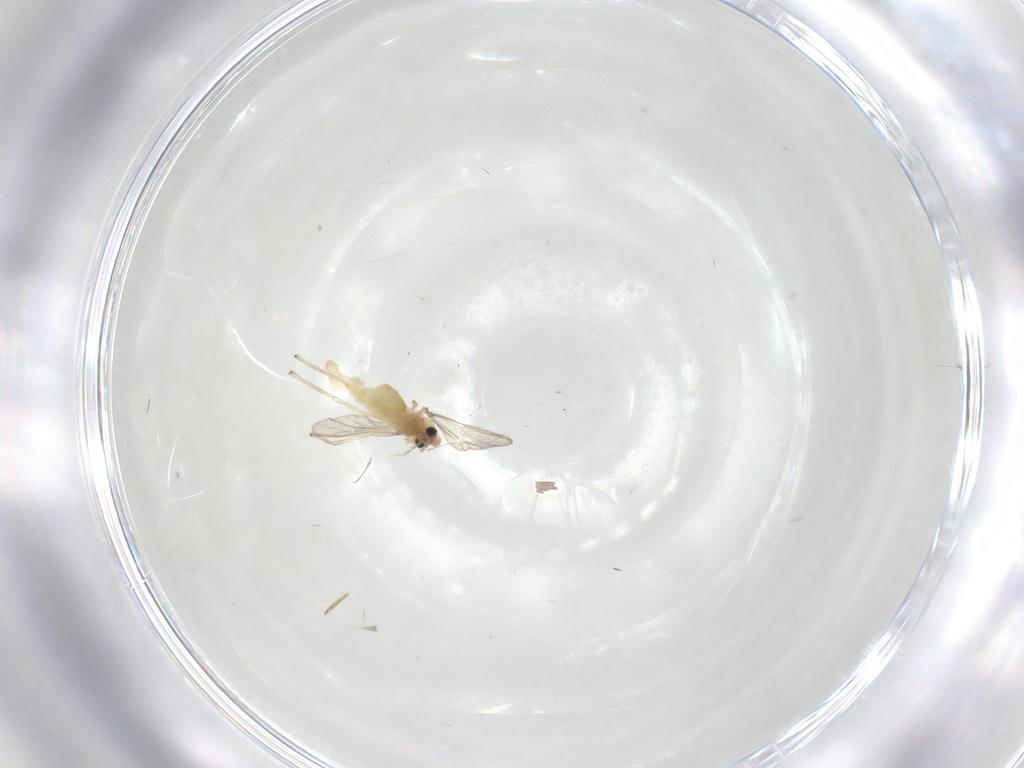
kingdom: Animalia
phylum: Arthropoda
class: Insecta
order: Diptera
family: Chironomidae
